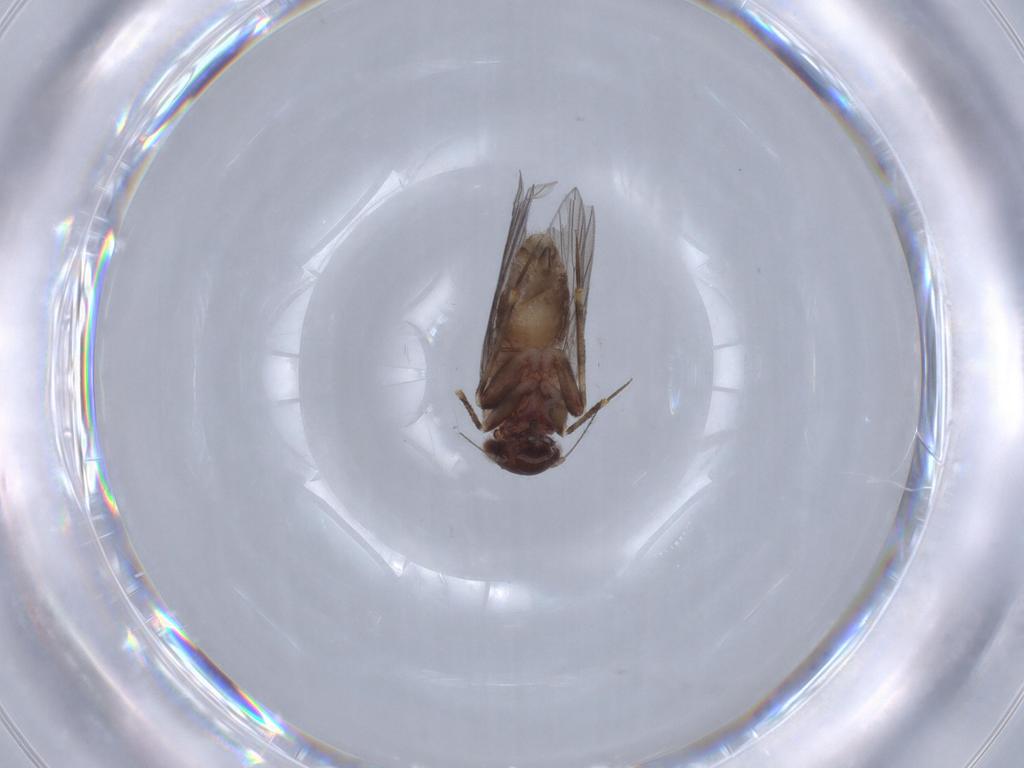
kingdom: Animalia
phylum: Arthropoda
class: Insecta
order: Psocodea
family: Lepidopsocidae
